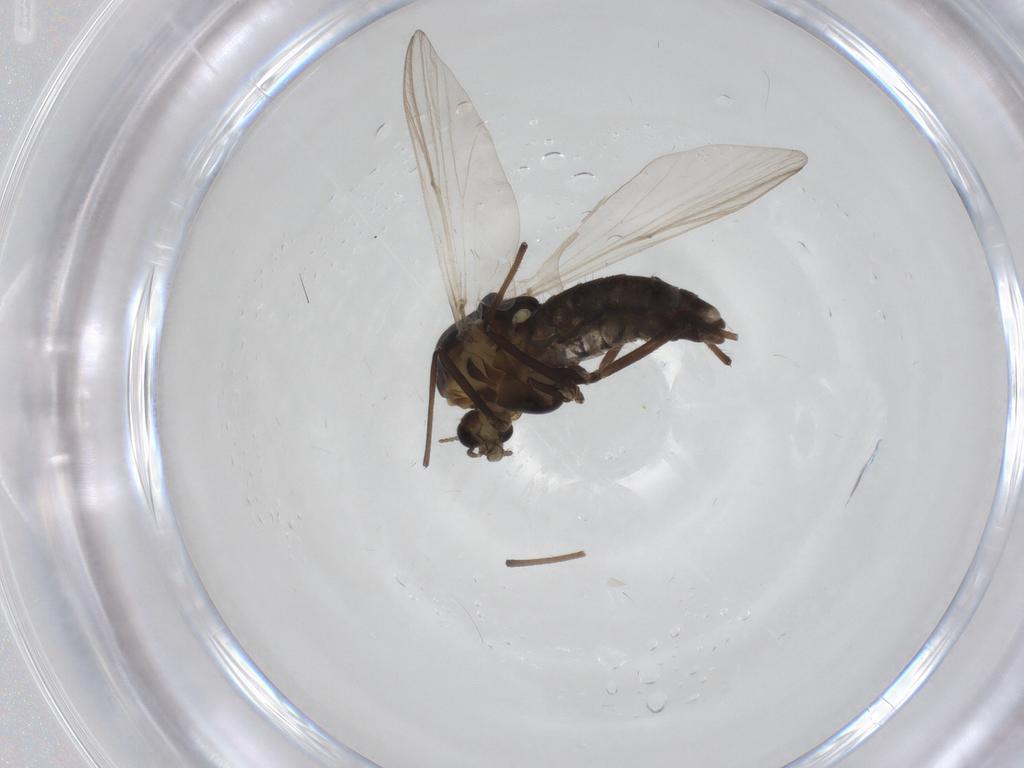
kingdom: Animalia
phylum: Arthropoda
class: Insecta
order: Diptera
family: Chironomidae
